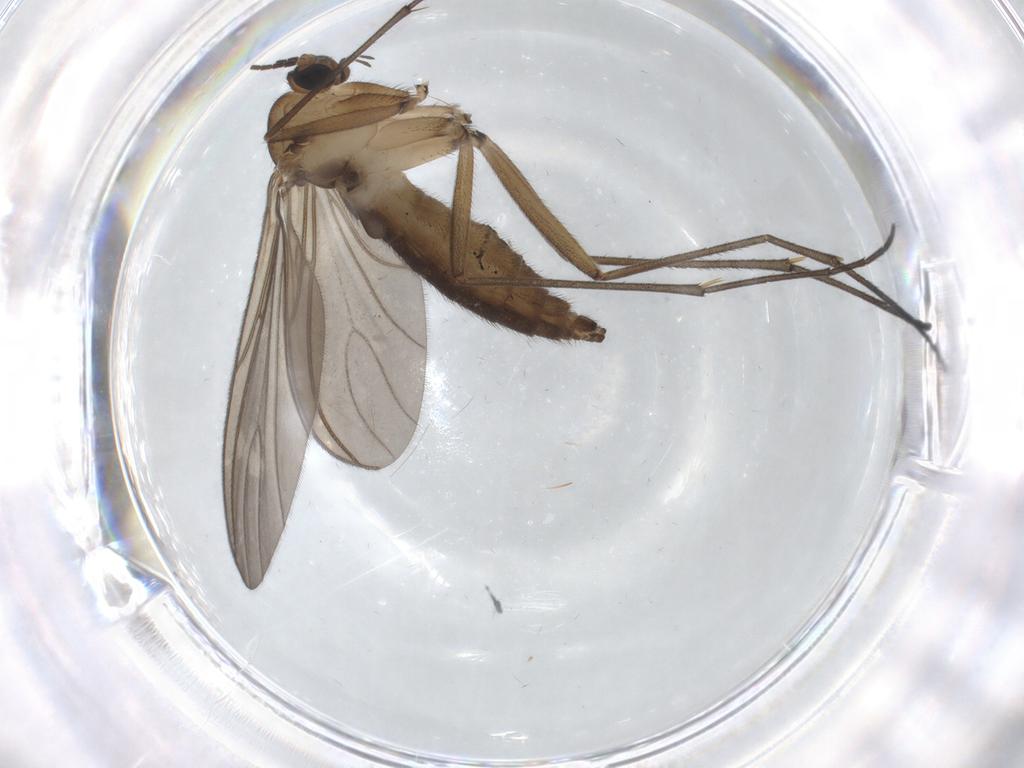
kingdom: Animalia
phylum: Arthropoda
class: Insecta
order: Diptera
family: Sciaridae
